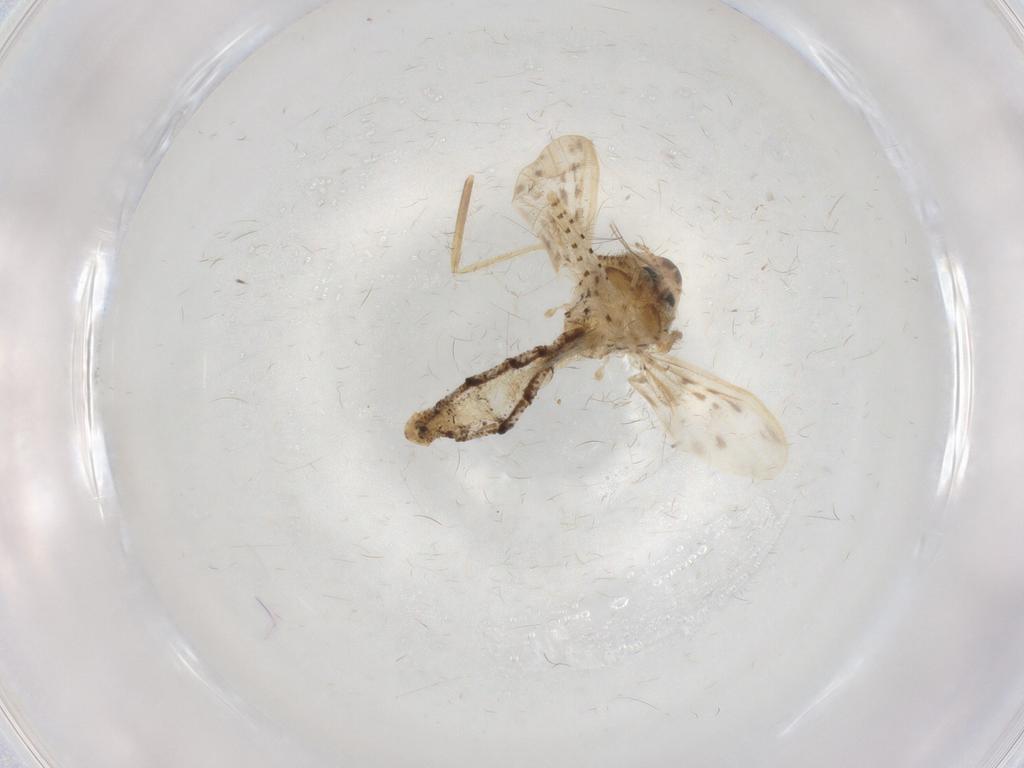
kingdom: Animalia
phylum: Arthropoda
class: Insecta
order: Diptera
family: Chaoboridae
